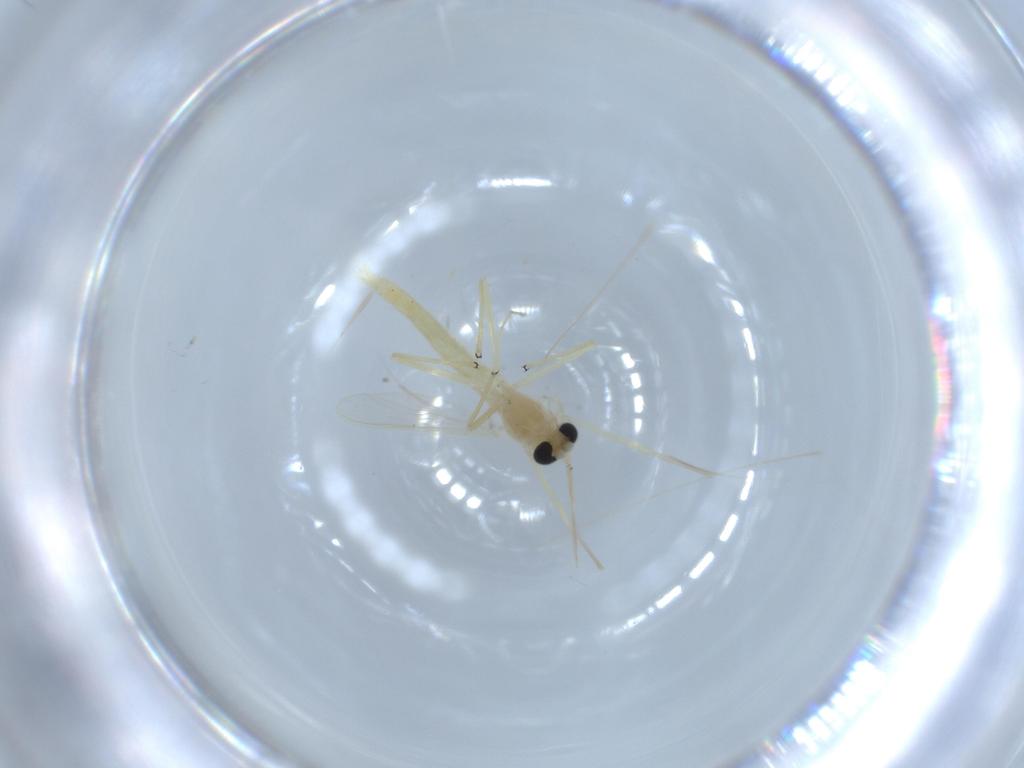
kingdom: Animalia
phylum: Arthropoda
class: Insecta
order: Diptera
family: Chironomidae
